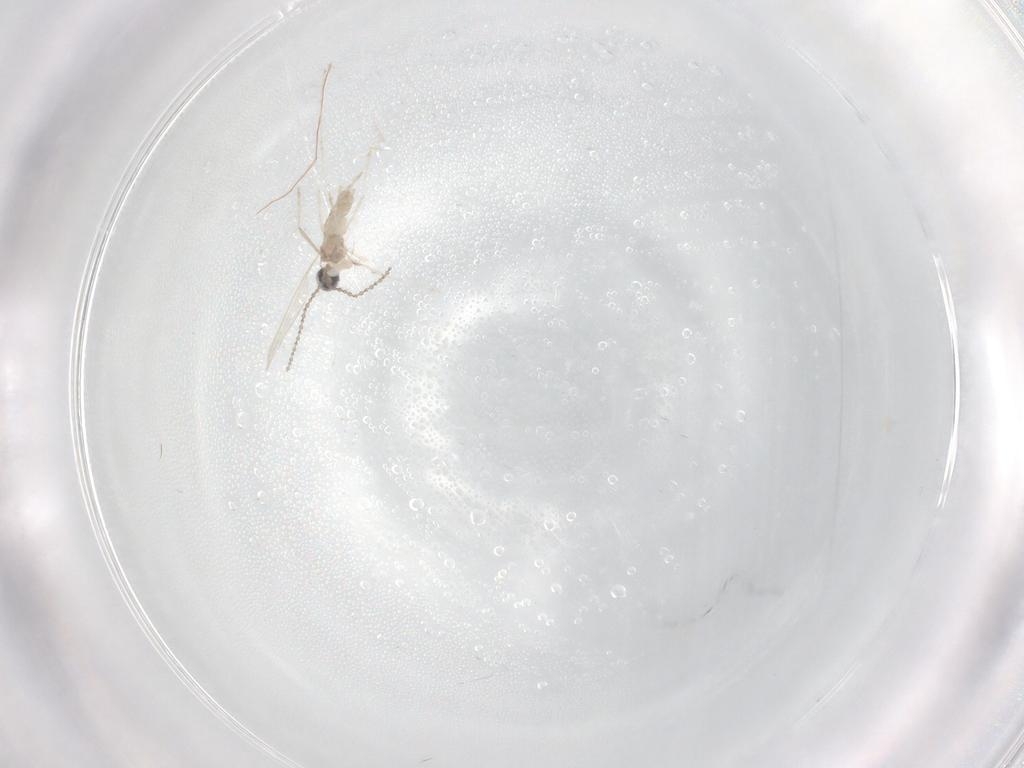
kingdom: Animalia
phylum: Arthropoda
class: Insecta
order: Diptera
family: Cecidomyiidae
